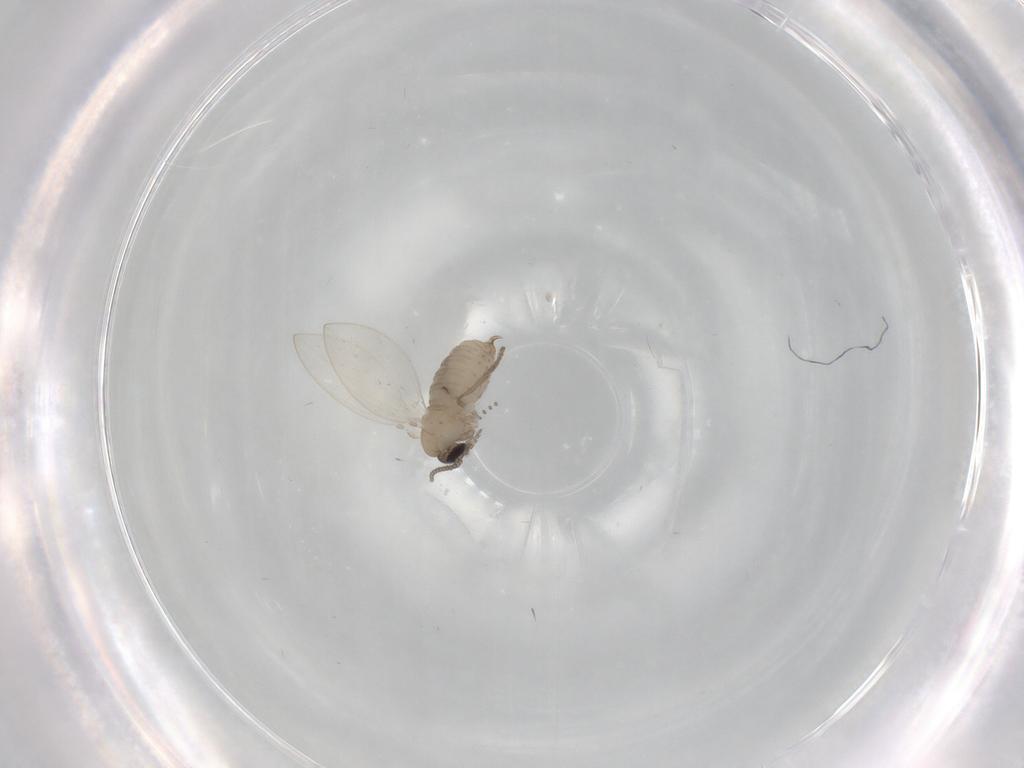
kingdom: Animalia
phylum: Arthropoda
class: Insecta
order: Diptera
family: Psychodidae
